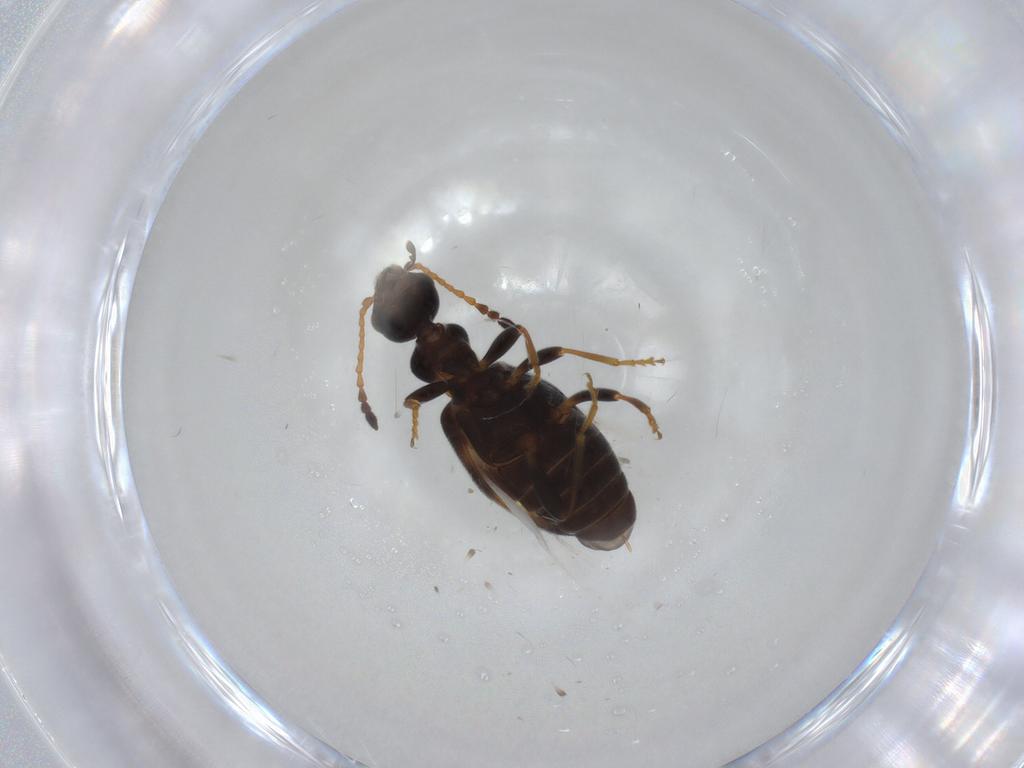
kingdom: Animalia
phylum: Arthropoda
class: Insecta
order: Coleoptera
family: Anthicidae
